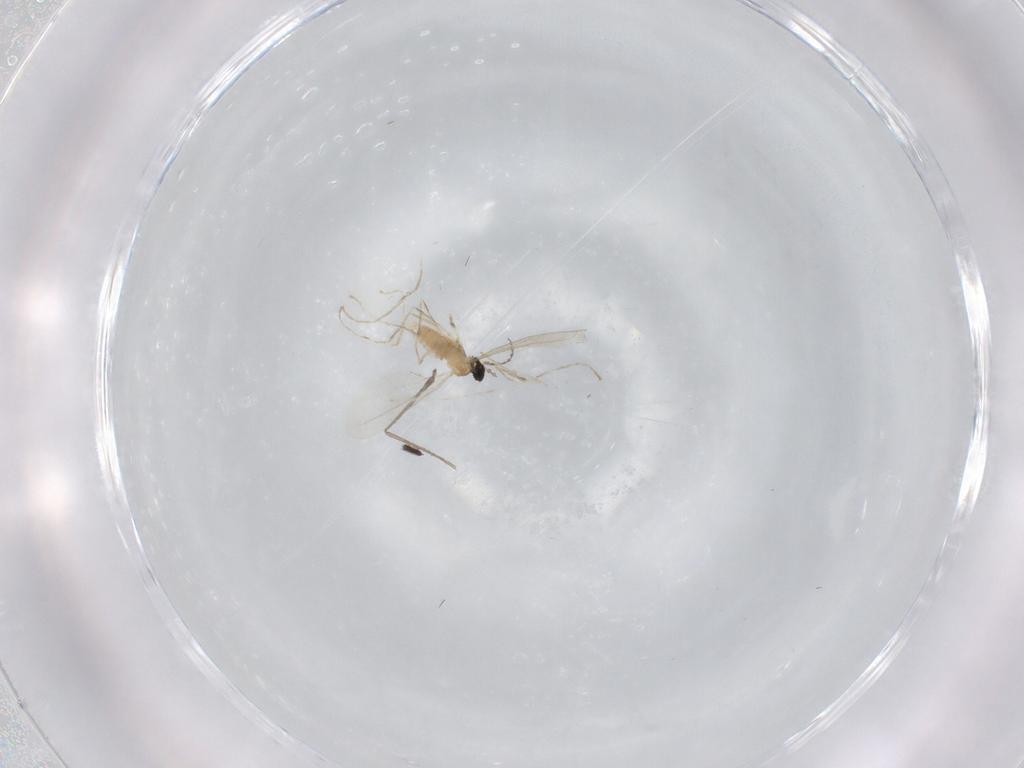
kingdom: Animalia
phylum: Arthropoda
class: Insecta
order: Diptera
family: Cecidomyiidae
